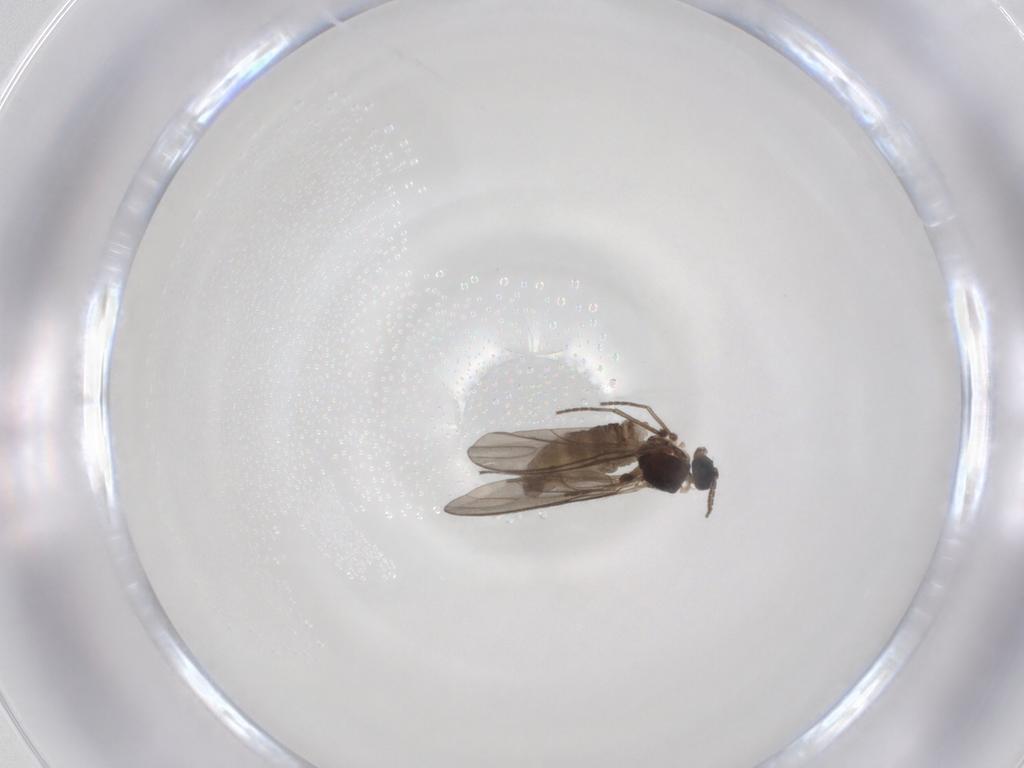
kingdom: Animalia
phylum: Arthropoda
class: Insecta
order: Diptera
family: Sciaridae
